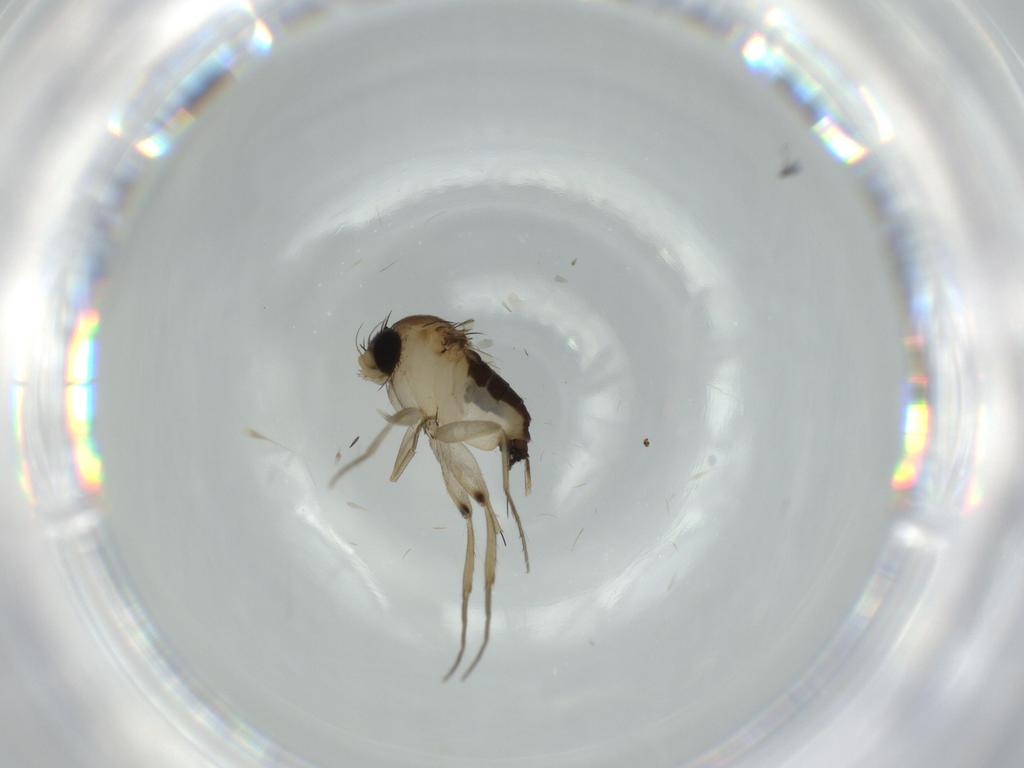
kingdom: Animalia
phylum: Arthropoda
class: Insecta
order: Diptera
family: Phoridae
